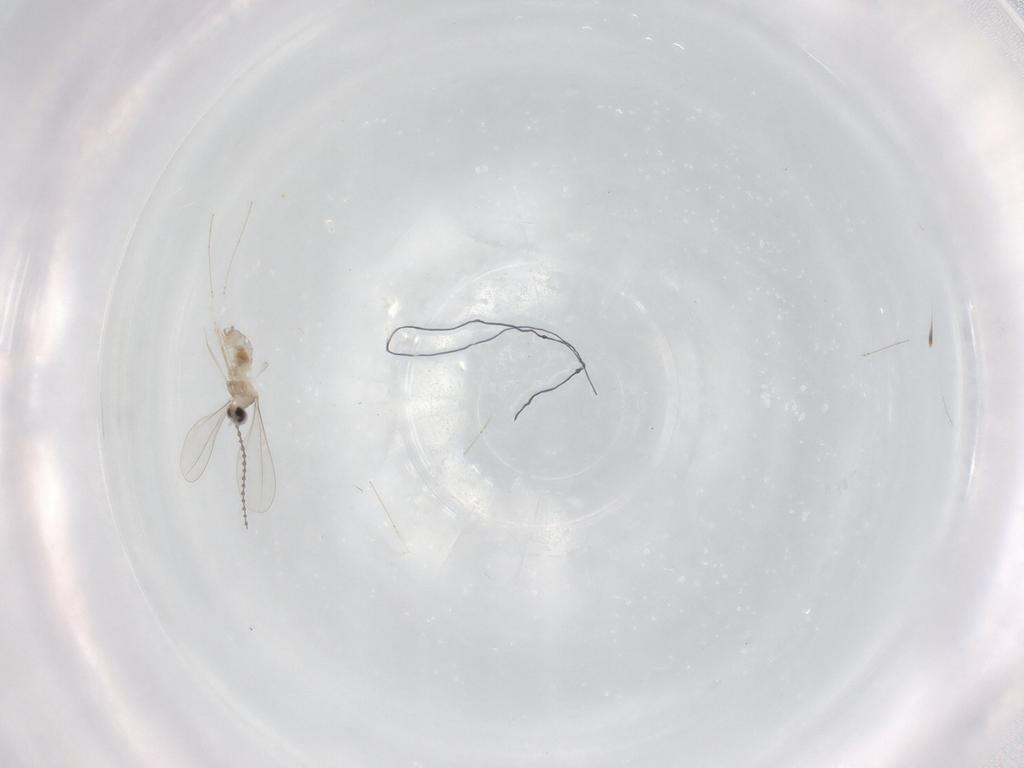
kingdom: Animalia
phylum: Arthropoda
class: Insecta
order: Diptera
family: Cecidomyiidae
